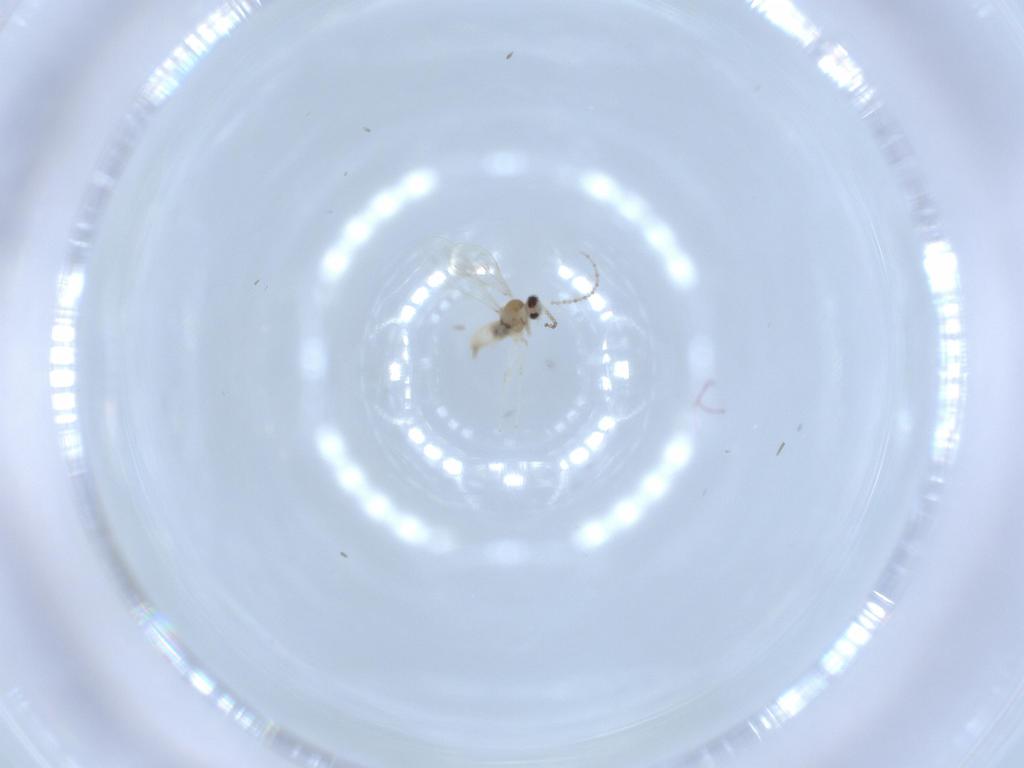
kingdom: Animalia
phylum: Arthropoda
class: Insecta
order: Diptera
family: Cecidomyiidae
